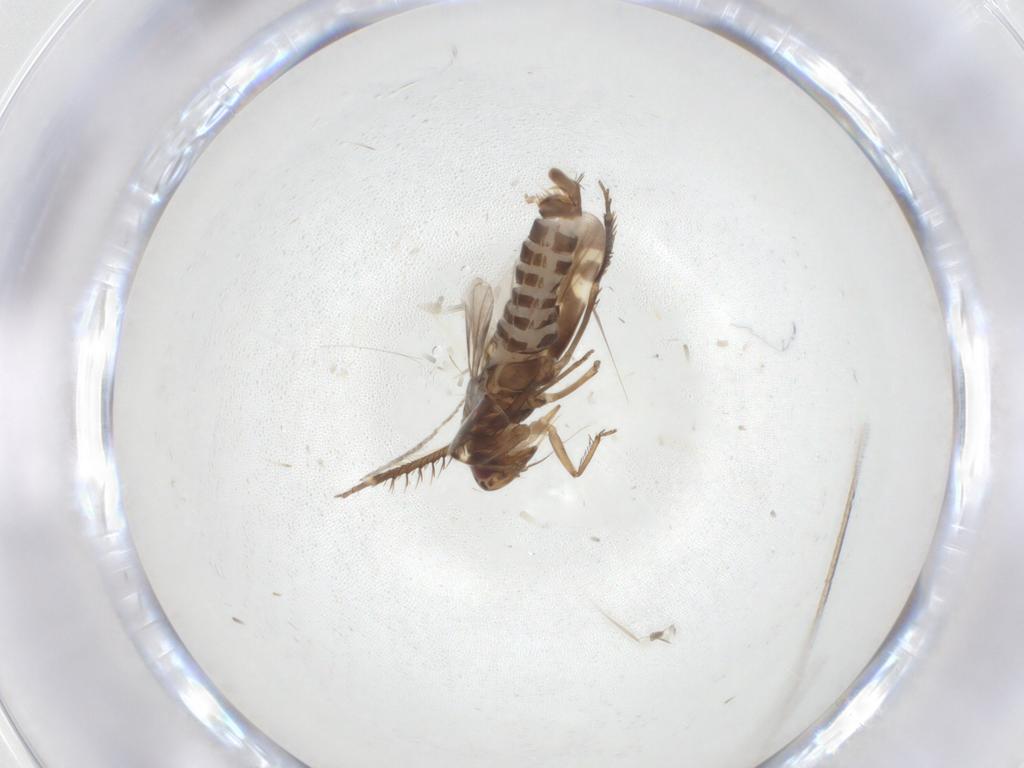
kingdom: Animalia
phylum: Arthropoda
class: Insecta
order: Hemiptera
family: Cicadellidae
